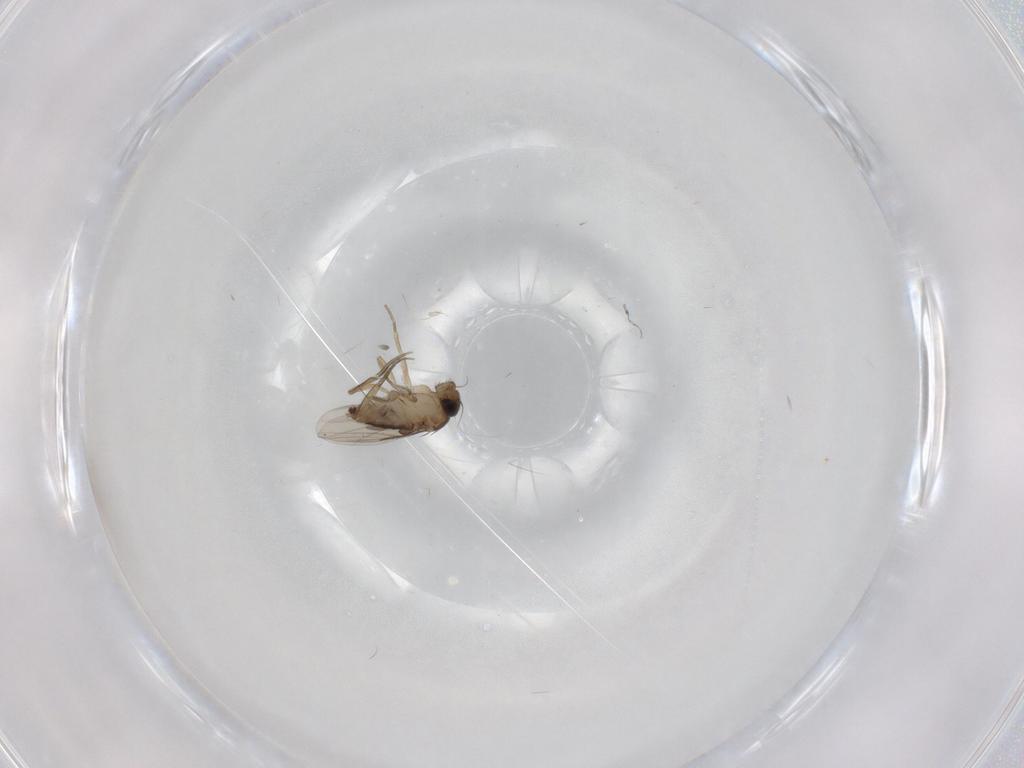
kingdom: Animalia
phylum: Arthropoda
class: Insecta
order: Diptera
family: Phoridae
